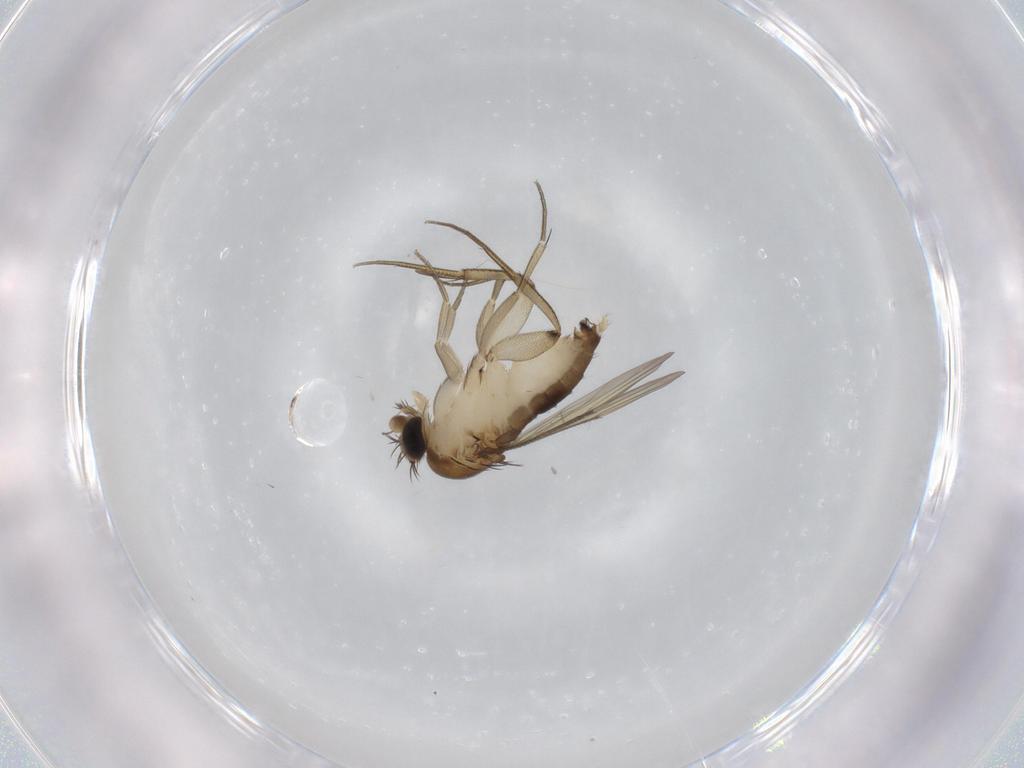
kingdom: Animalia
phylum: Arthropoda
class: Insecta
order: Diptera
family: Phoridae
